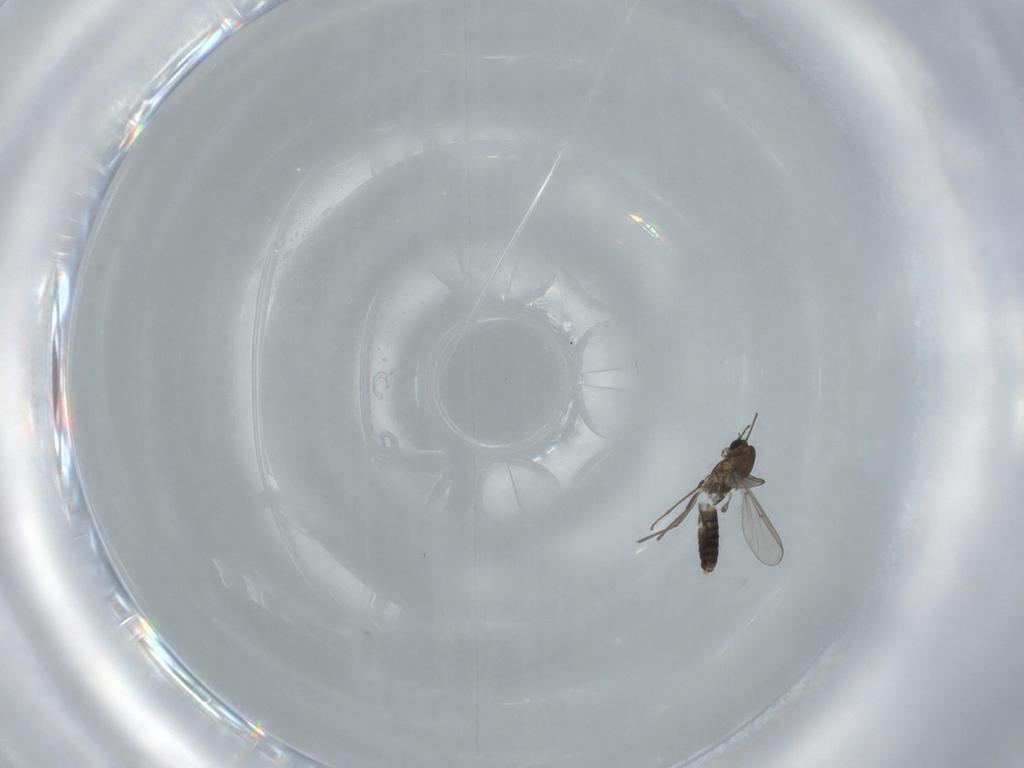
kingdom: Animalia
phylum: Arthropoda
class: Insecta
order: Diptera
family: Chironomidae
